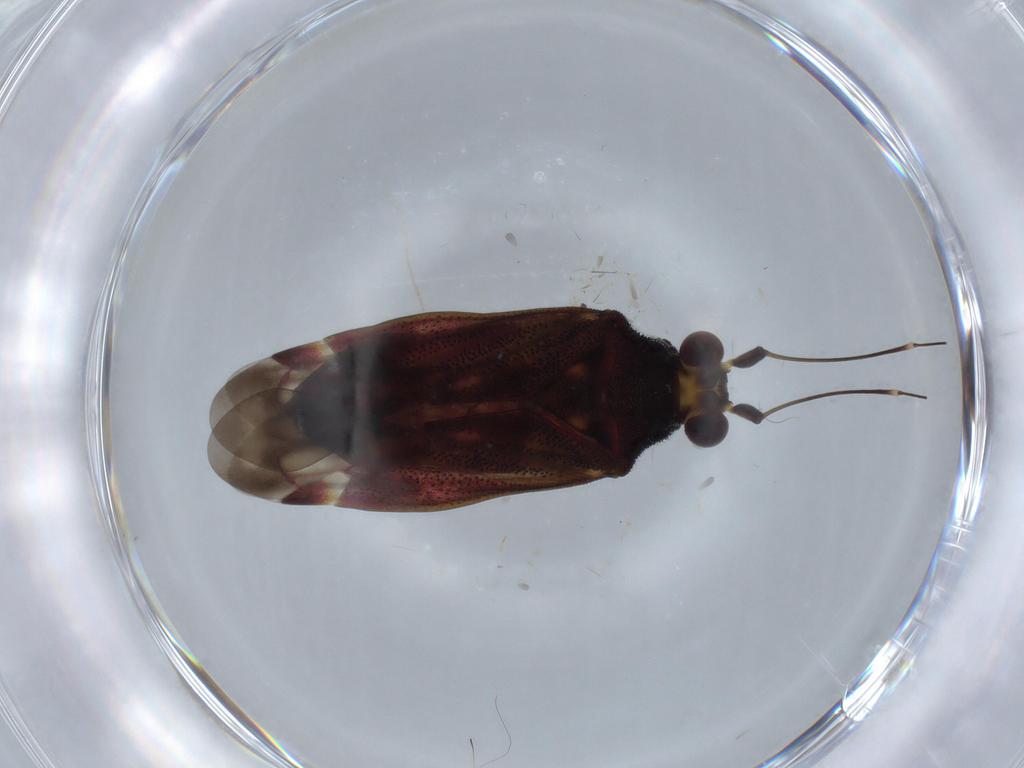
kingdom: Animalia
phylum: Arthropoda
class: Insecta
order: Hemiptera
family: Miridae
